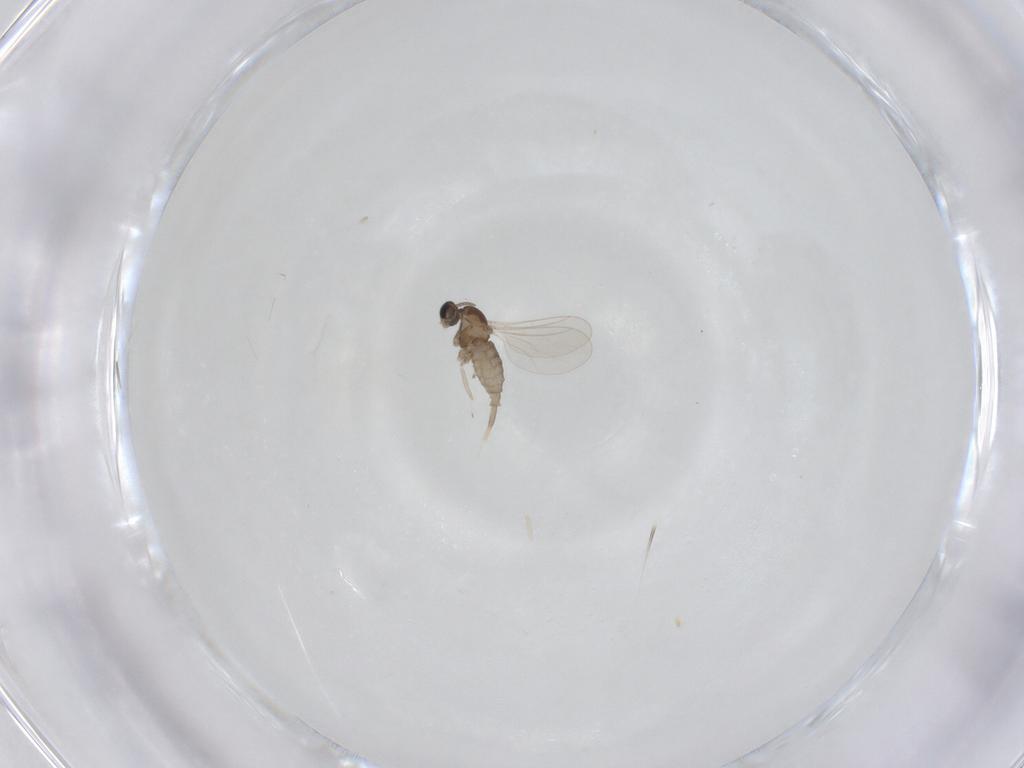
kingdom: Animalia
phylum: Arthropoda
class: Insecta
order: Diptera
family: Cecidomyiidae
